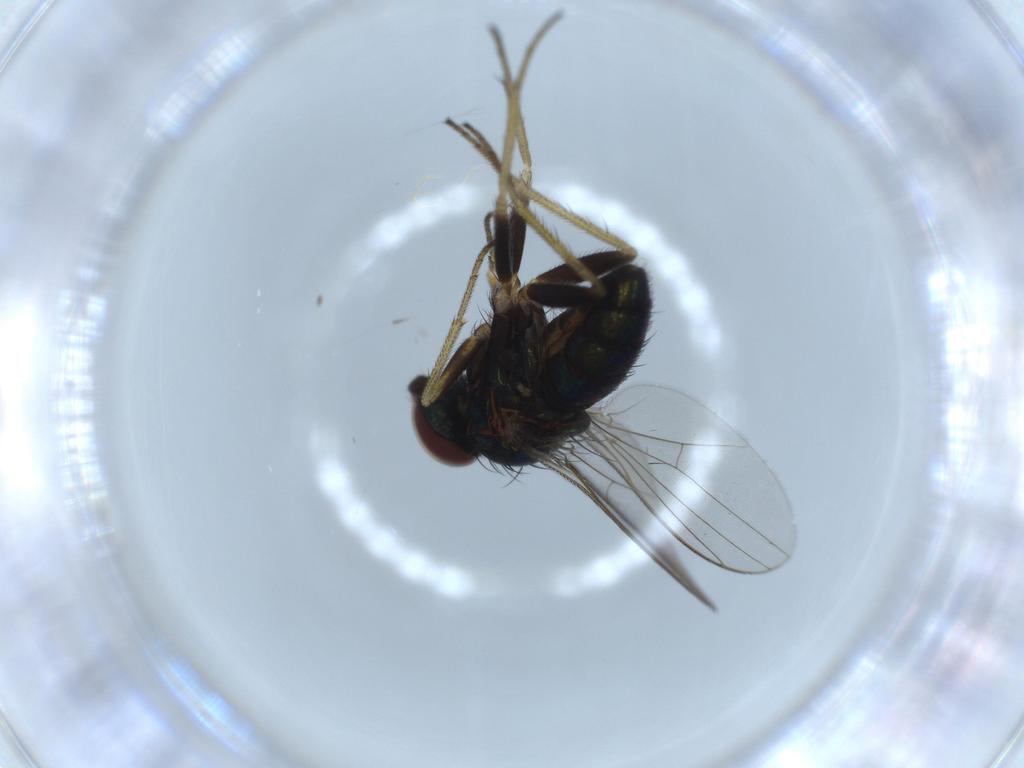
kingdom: Animalia
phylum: Arthropoda
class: Insecta
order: Diptera
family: Dolichopodidae
